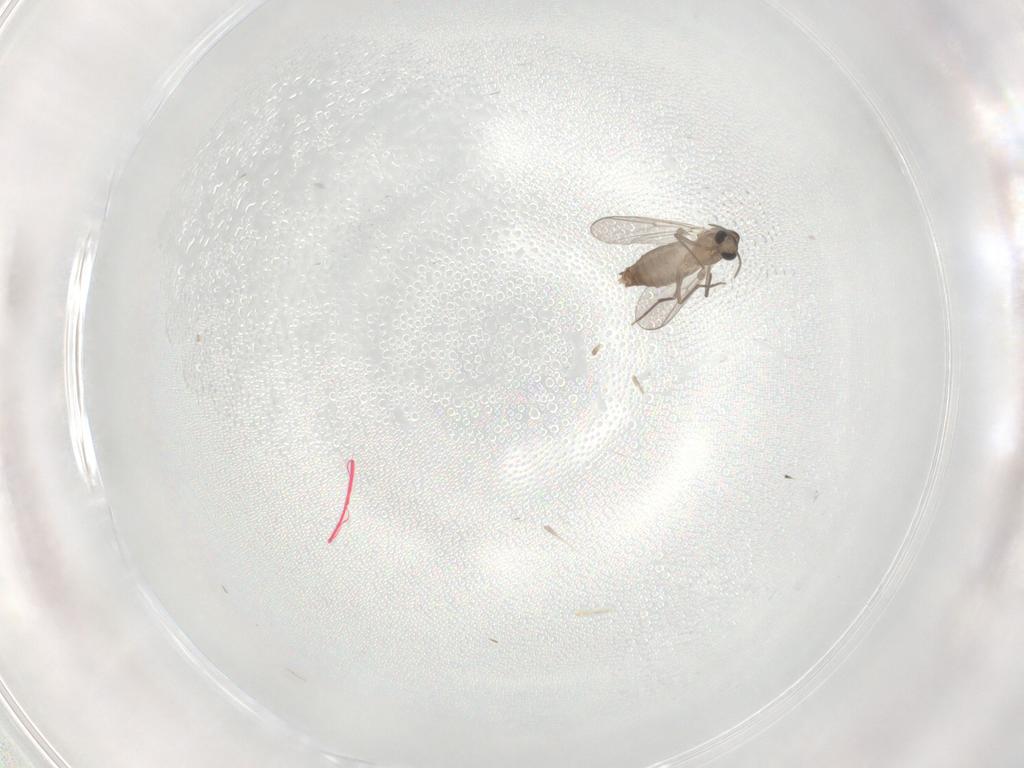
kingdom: Animalia
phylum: Arthropoda
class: Insecta
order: Diptera
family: Chironomidae
